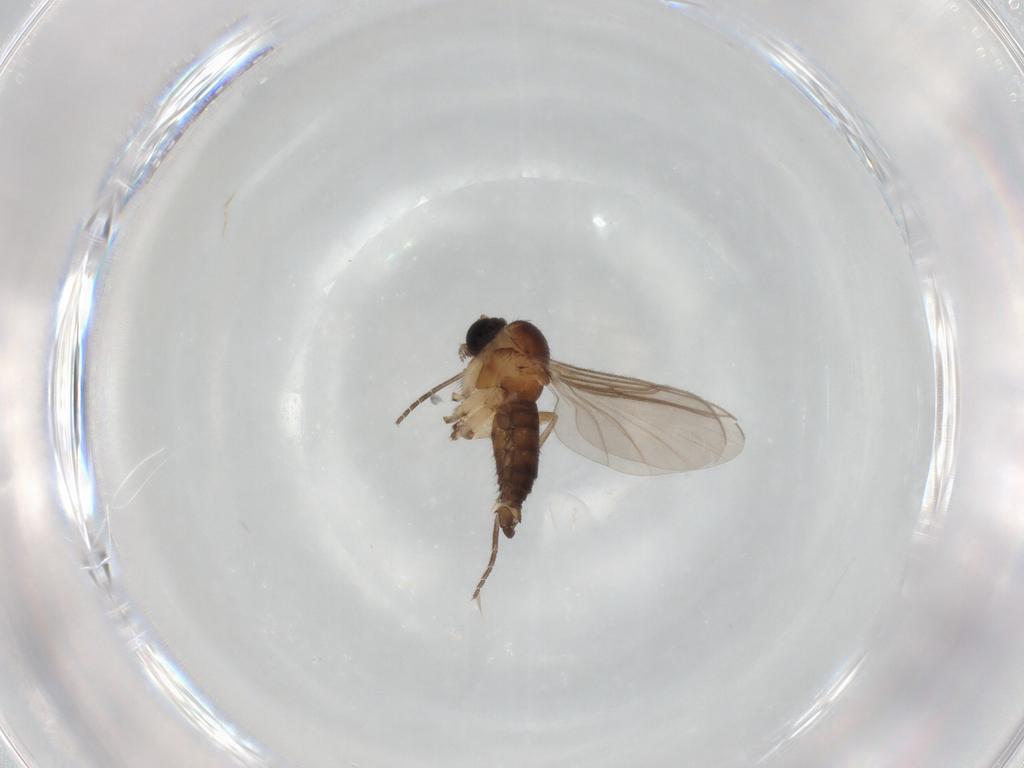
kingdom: Animalia
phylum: Arthropoda
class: Insecta
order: Diptera
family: Sciaridae
